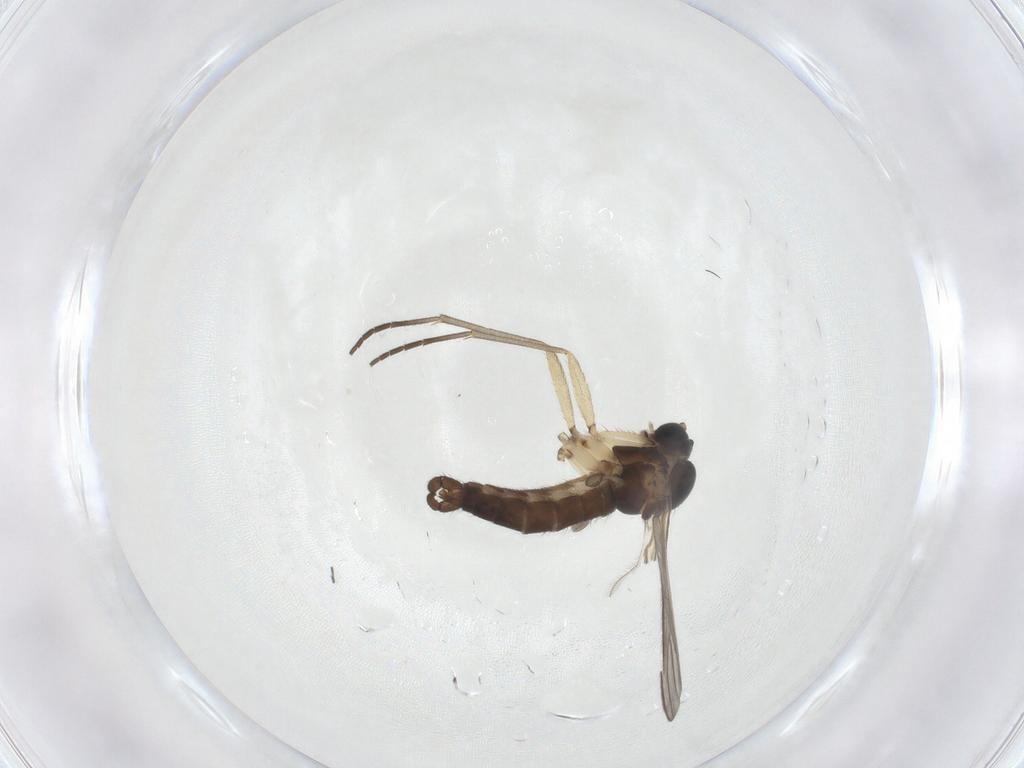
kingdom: Animalia
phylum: Arthropoda
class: Insecta
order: Diptera
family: Sciaridae
